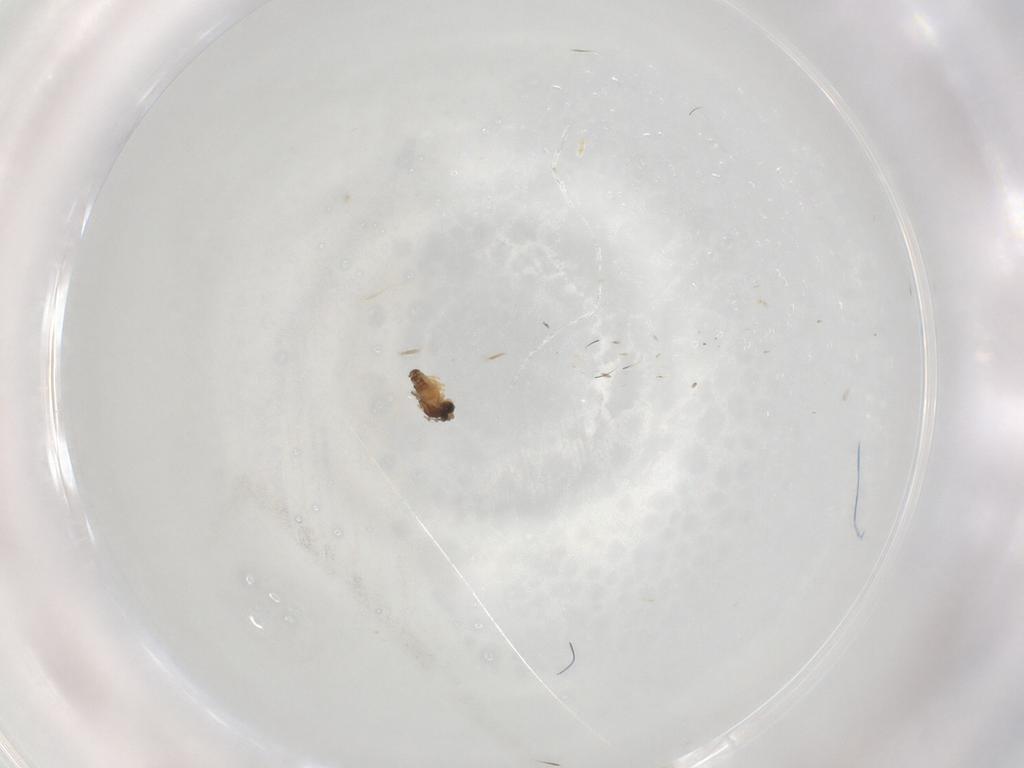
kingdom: Animalia
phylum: Arthropoda
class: Insecta
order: Diptera
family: Cecidomyiidae
